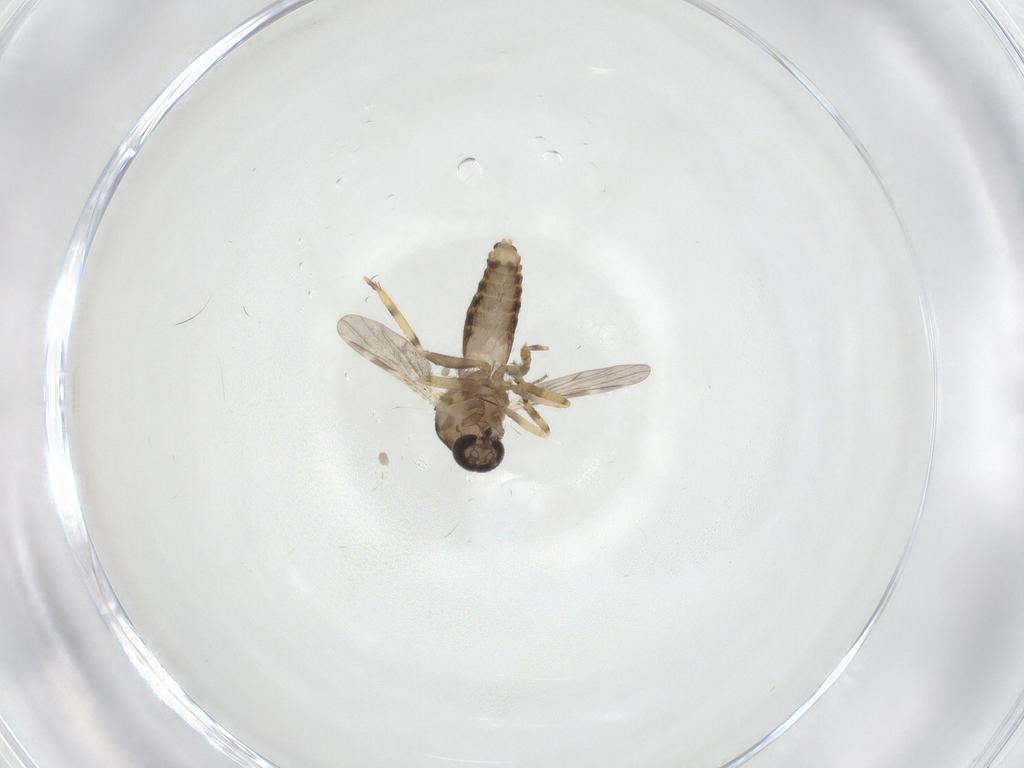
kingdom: Animalia
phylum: Arthropoda
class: Insecta
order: Diptera
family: Ceratopogonidae
